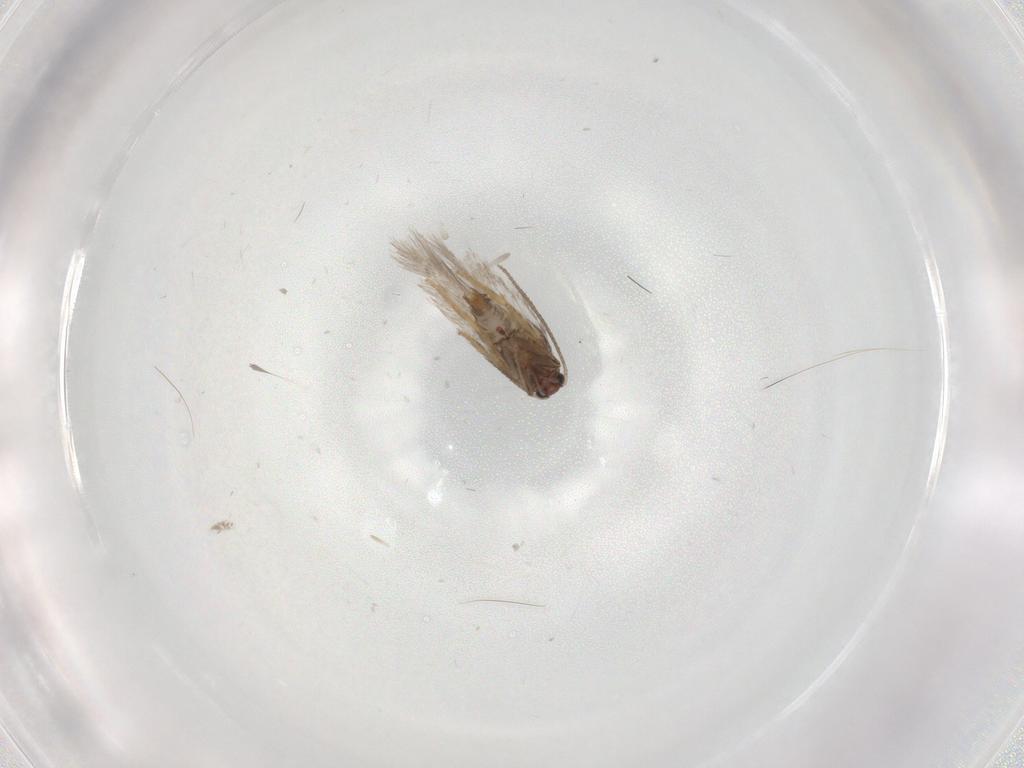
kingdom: Animalia
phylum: Arthropoda
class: Insecta
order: Lepidoptera
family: Nepticulidae
